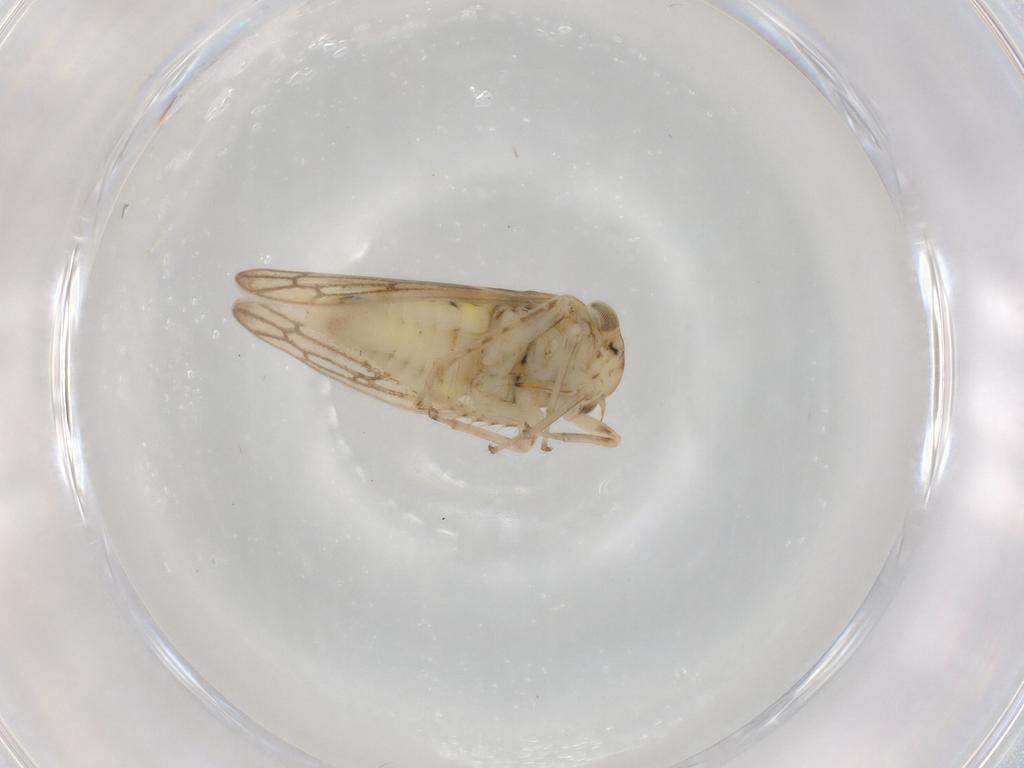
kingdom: Animalia
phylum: Arthropoda
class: Insecta
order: Hemiptera
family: Cicadellidae
